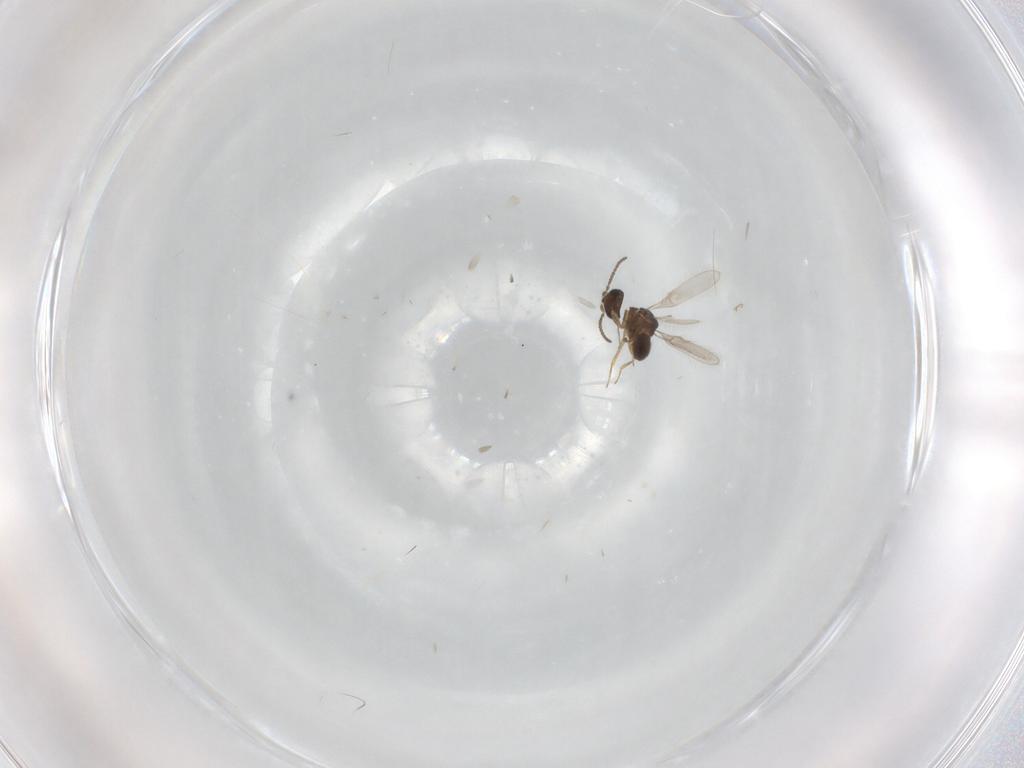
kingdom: Animalia
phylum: Arthropoda
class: Insecta
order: Hymenoptera
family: Scelionidae
